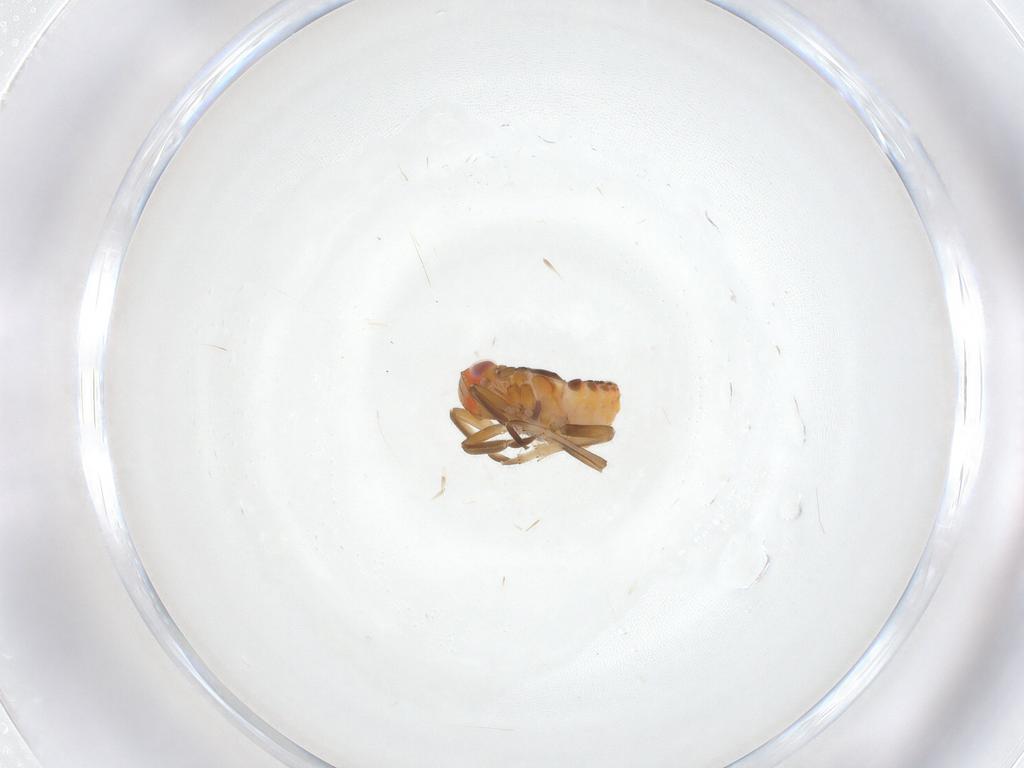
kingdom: Animalia
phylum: Arthropoda
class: Insecta
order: Hemiptera
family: Fulgoroidea_incertae_sedis
